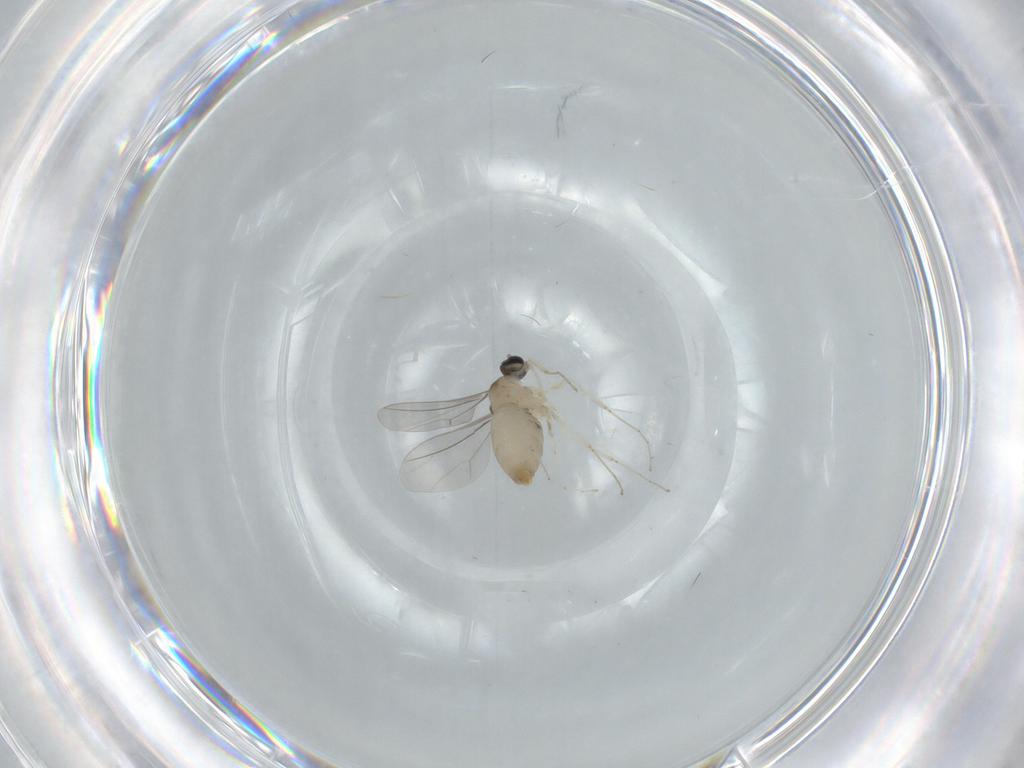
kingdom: Animalia
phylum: Arthropoda
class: Insecta
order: Diptera
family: Cecidomyiidae
